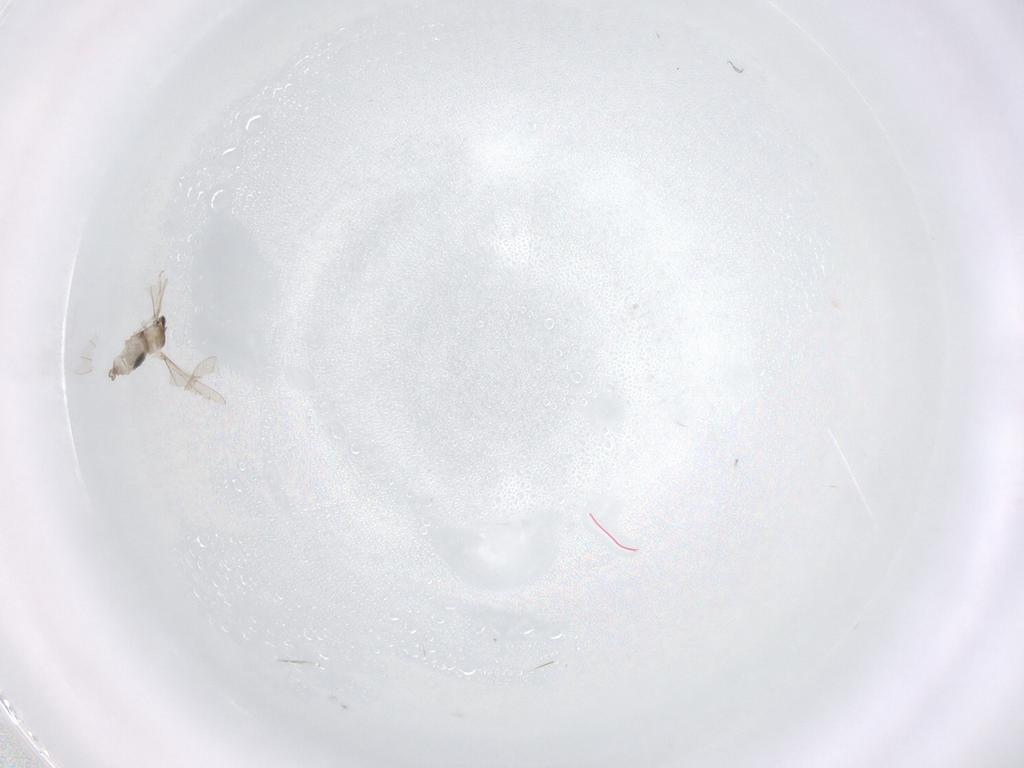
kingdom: Animalia
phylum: Arthropoda
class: Insecta
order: Diptera
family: Cecidomyiidae
